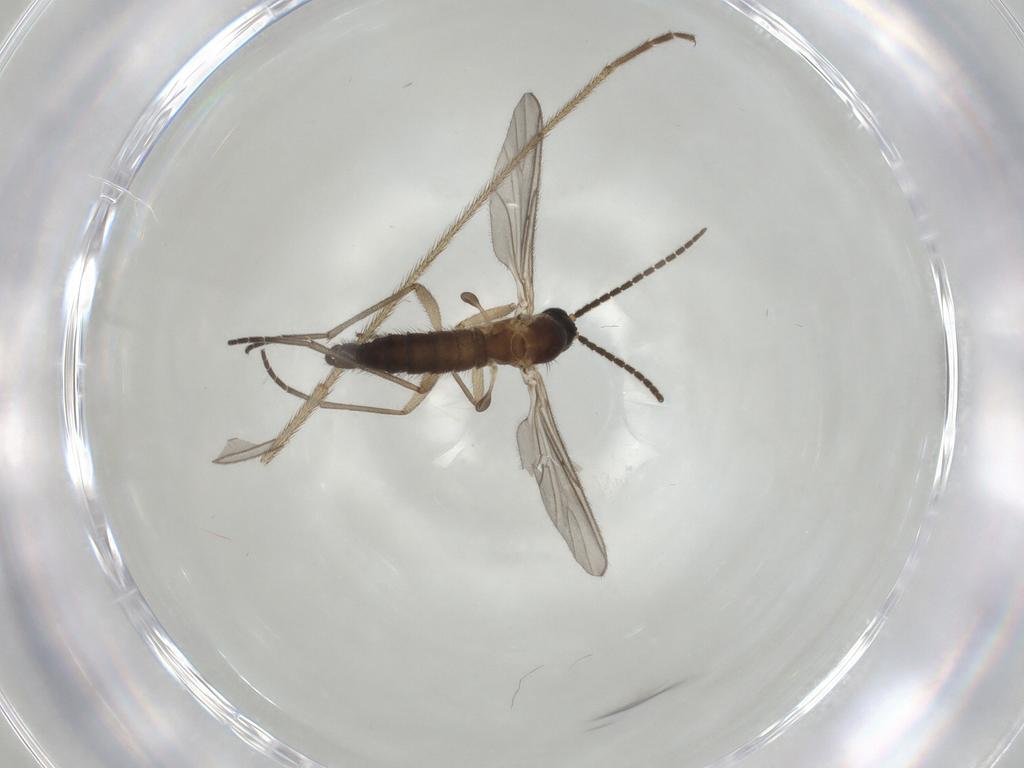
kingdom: Animalia
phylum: Arthropoda
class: Insecta
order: Diptera
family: Sciaridae
